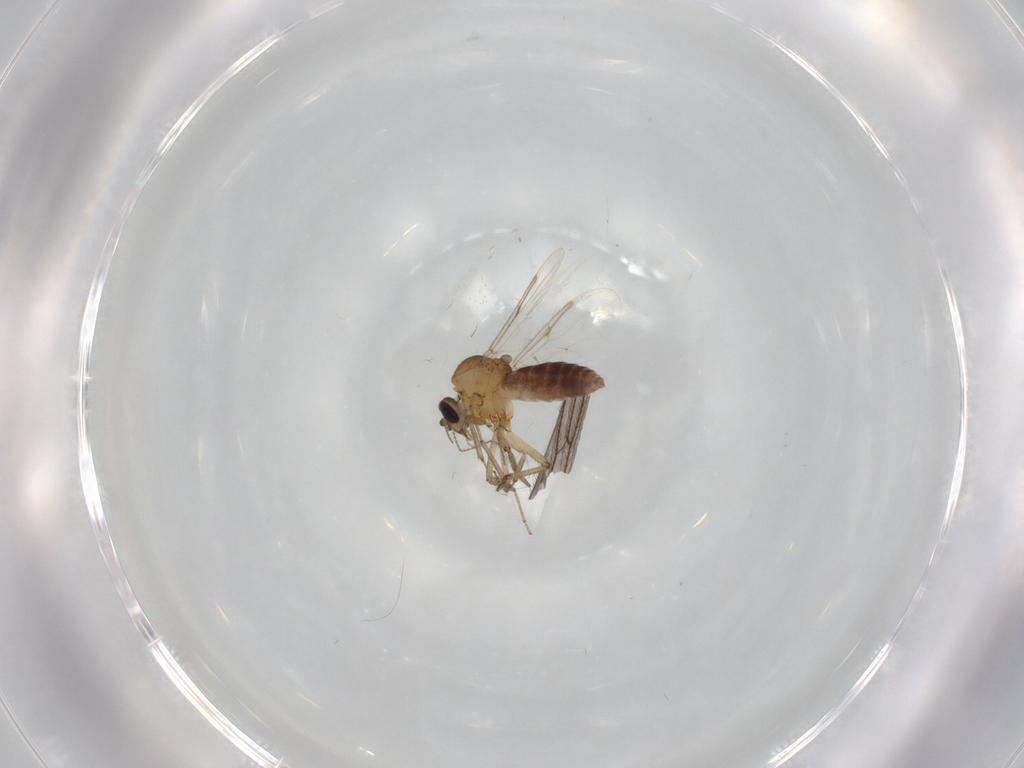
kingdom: Animalia
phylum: Arthropoda
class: Insecta
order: Diptera
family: Ceratopogonidae
